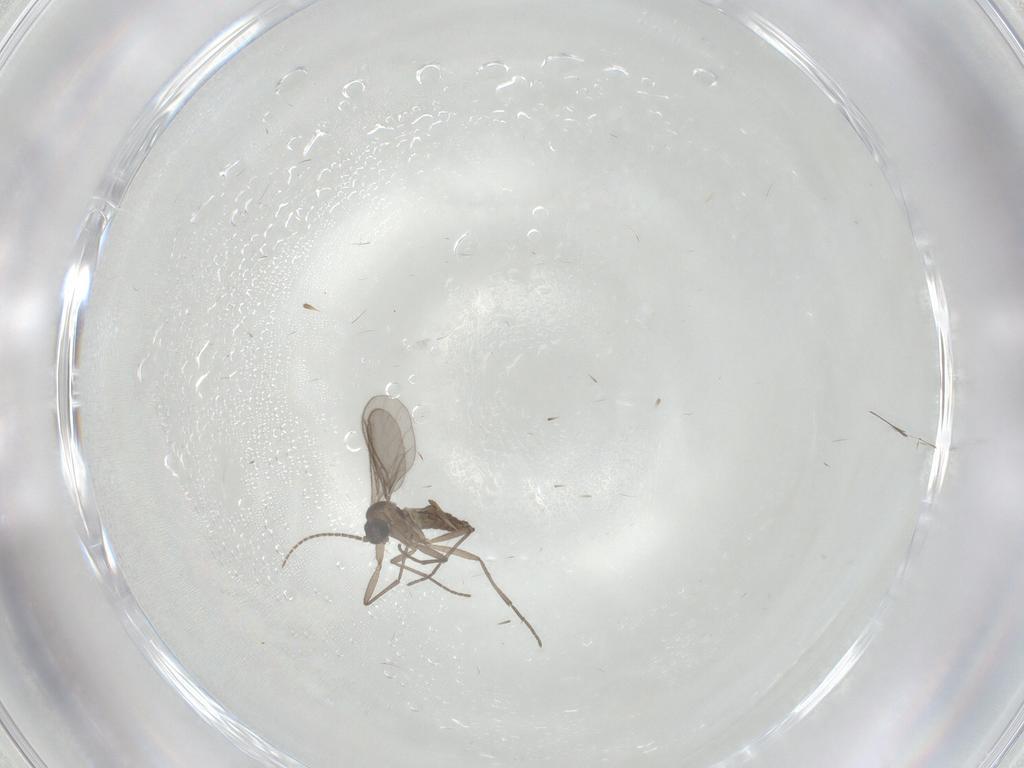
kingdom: Animalia
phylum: Arthropoda
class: Insecta
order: Diptera
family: Sciaridae
